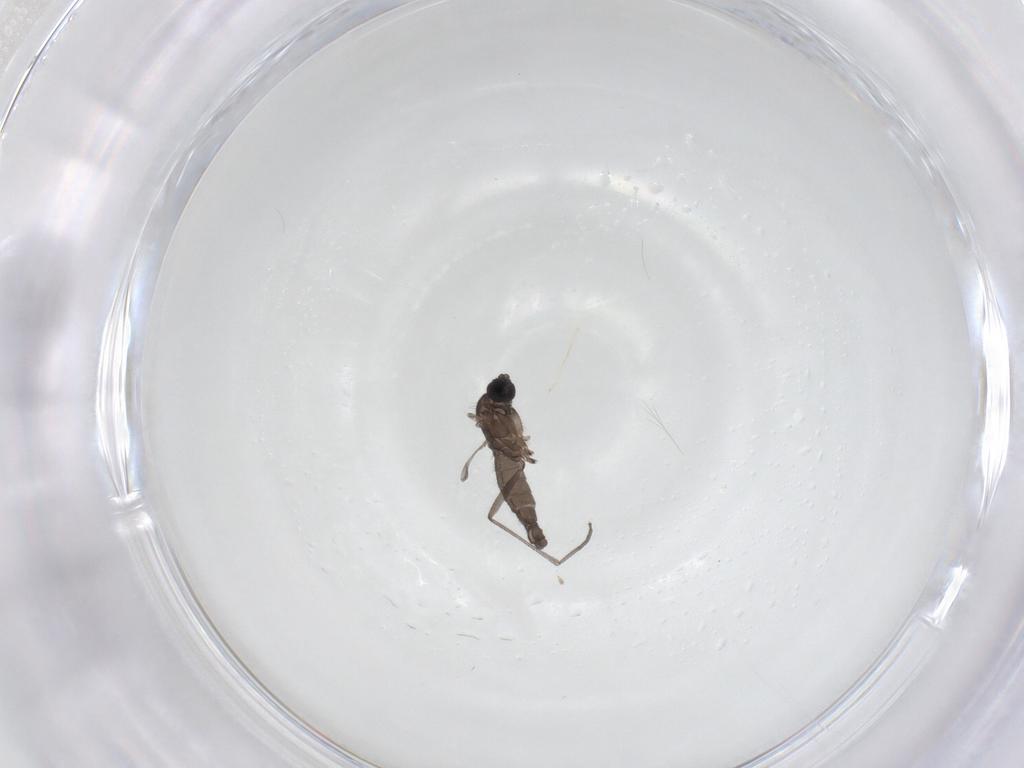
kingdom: Animalia
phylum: Arthropoda
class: Insecta
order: Diptera
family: Sciaridae
